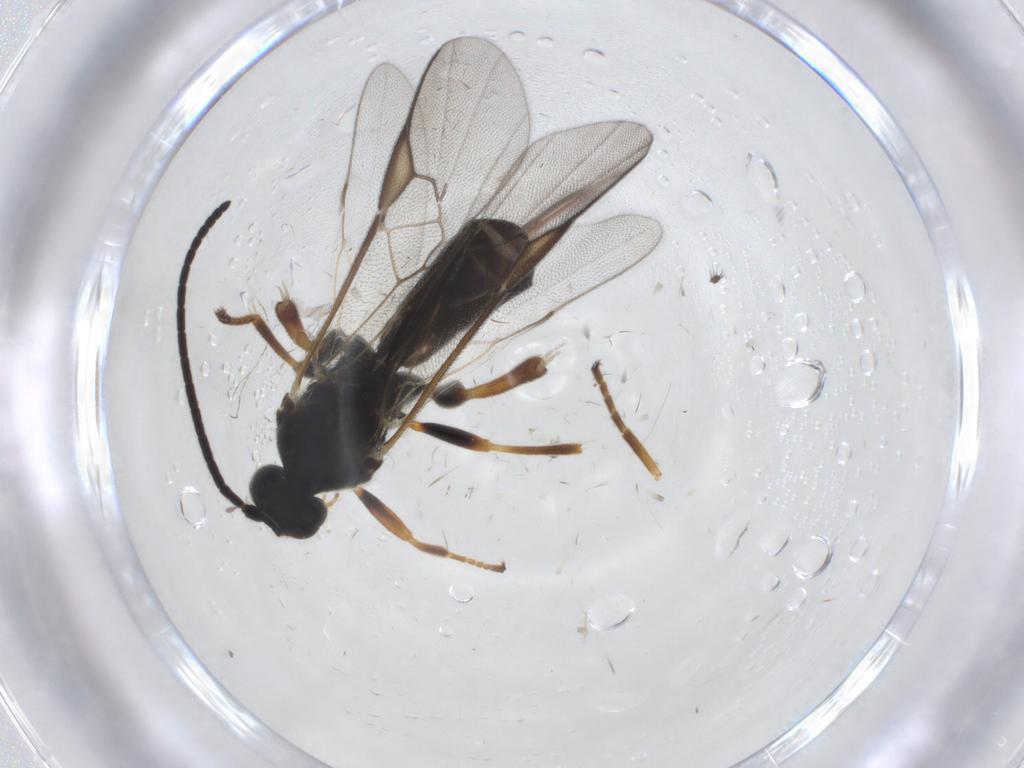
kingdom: Animalia
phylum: Arthropoda
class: Insecta
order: Hymenoptera
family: Braconidae
